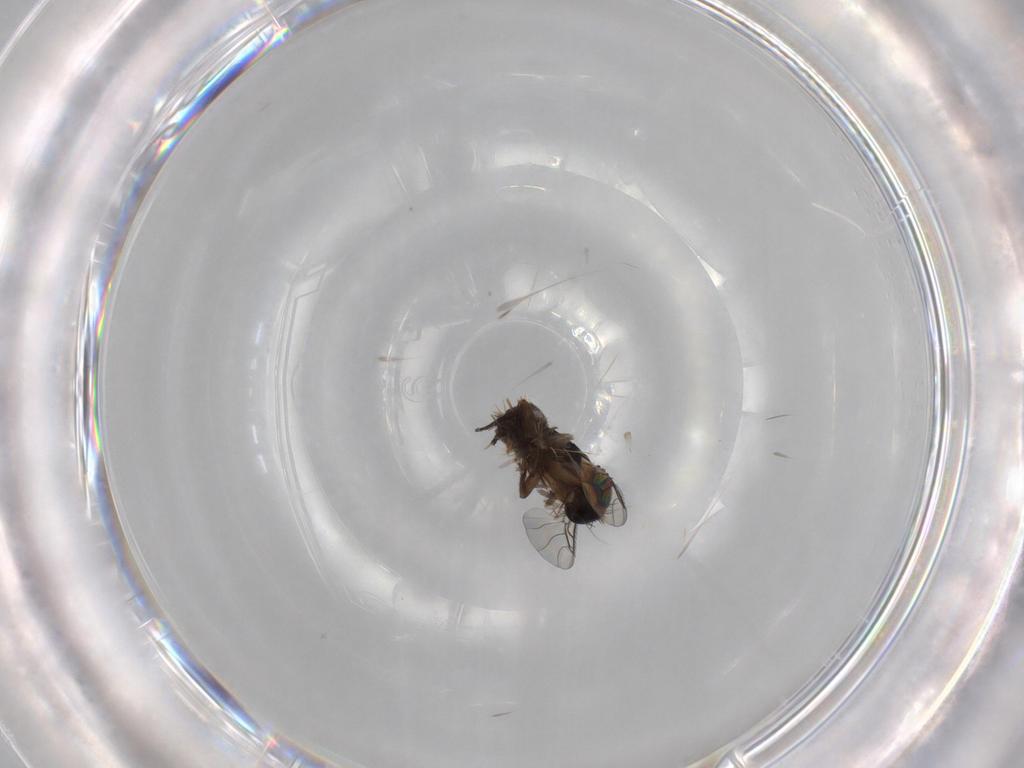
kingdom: Animalia
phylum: Arthropoda
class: Insecta
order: Diptera
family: Phoridae
